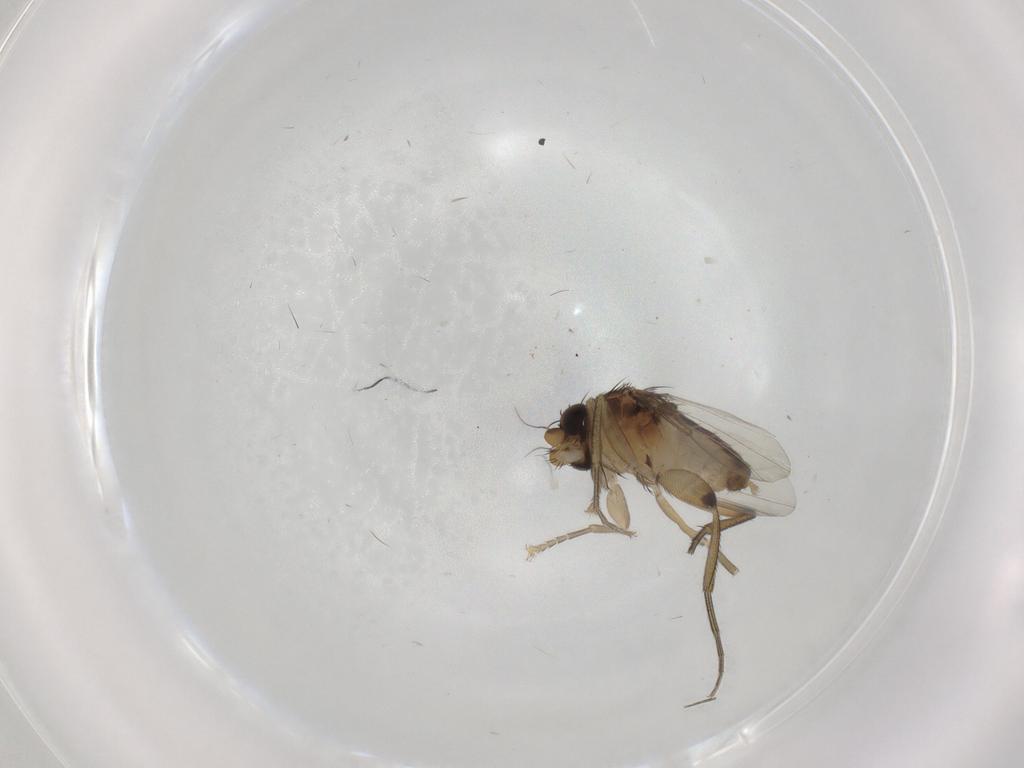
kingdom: Animalia
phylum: Arthropoda
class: Insecta
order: Diptera
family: Phoridae
